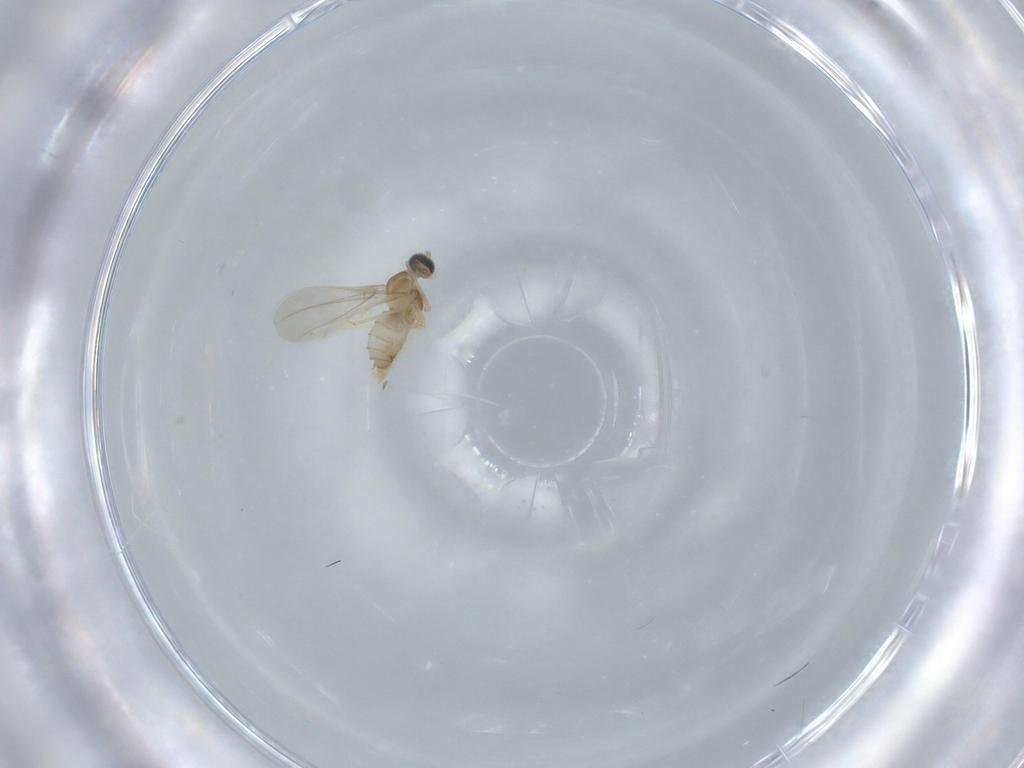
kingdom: Animalia
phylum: Arthropoda
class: Insecta
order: Diptera
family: Cecidomyiidae
